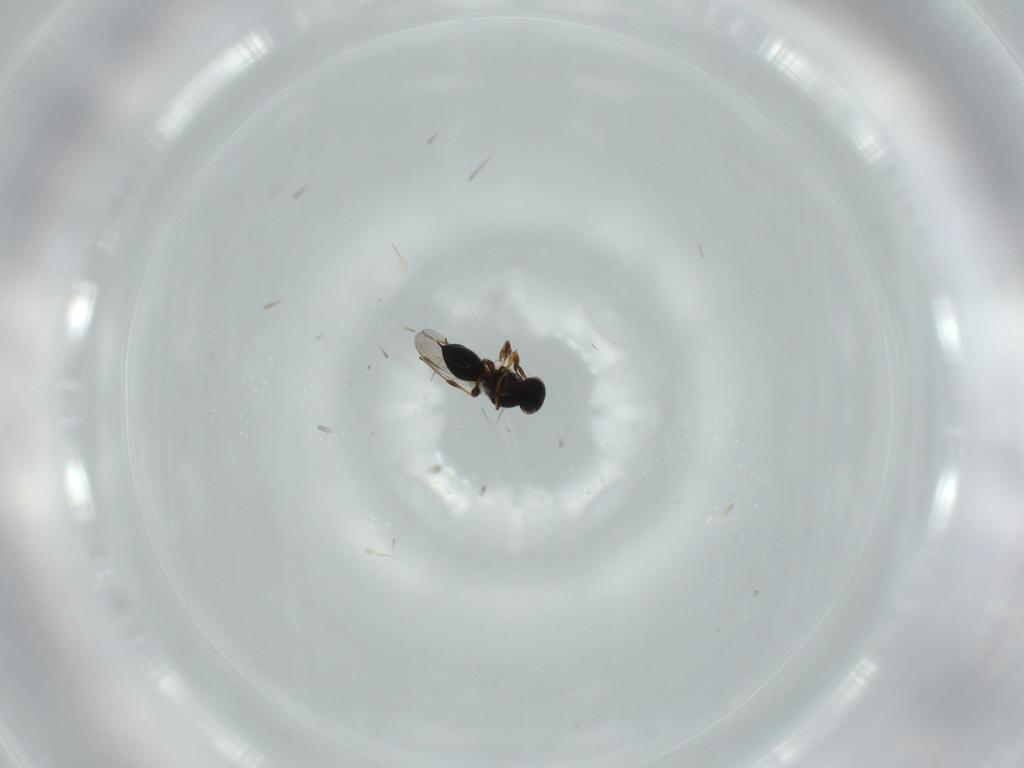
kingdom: Animalia
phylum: Arthropoda
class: Insecta
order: Hymenoptera
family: Platygastridae
